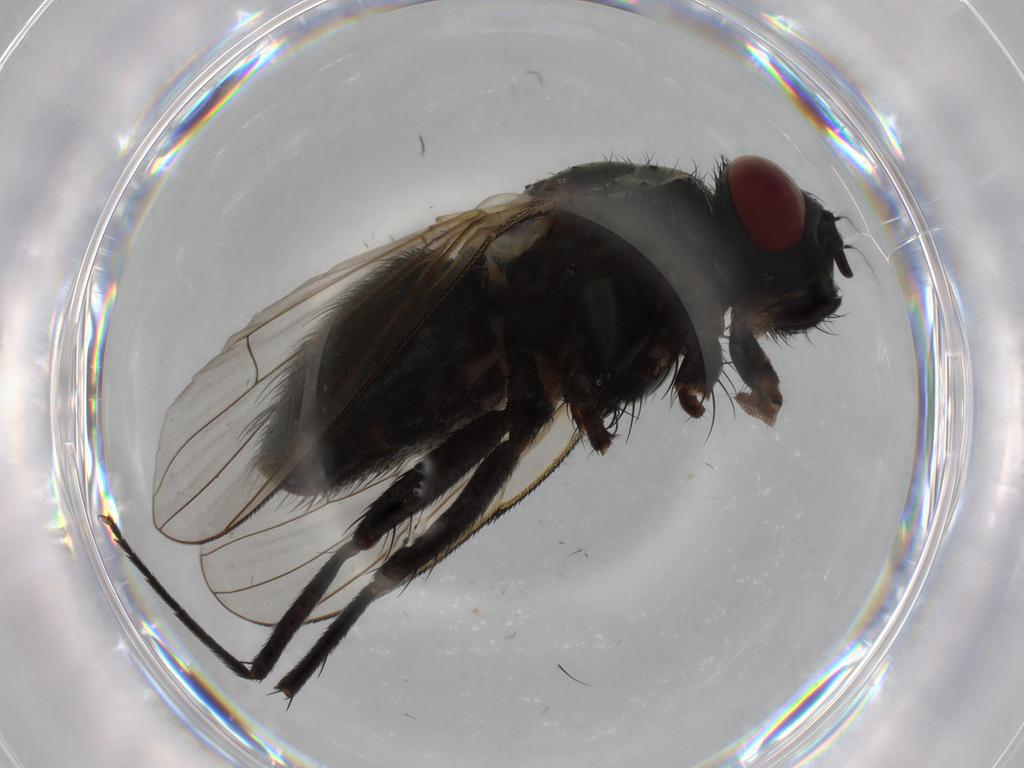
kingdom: Animalia
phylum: Arthropoda
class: Insecta
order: Diptera
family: Muscidae
